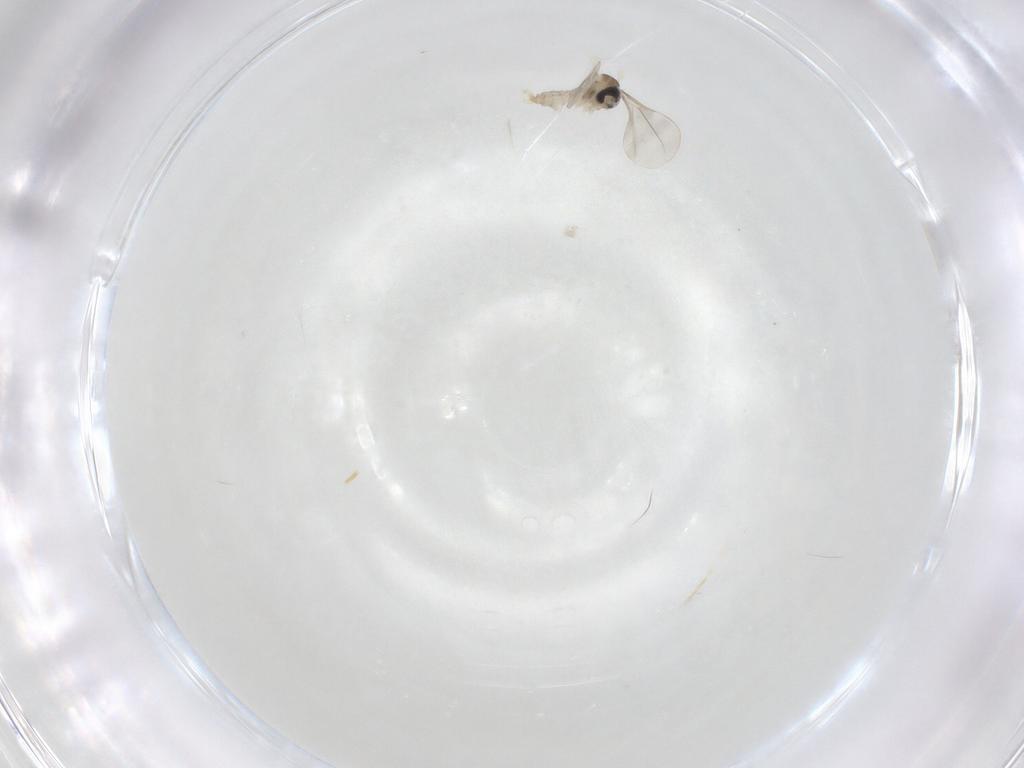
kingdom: Animalia
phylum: Arthropoda
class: Insecta
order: Diptera
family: Cecidomyiidae
